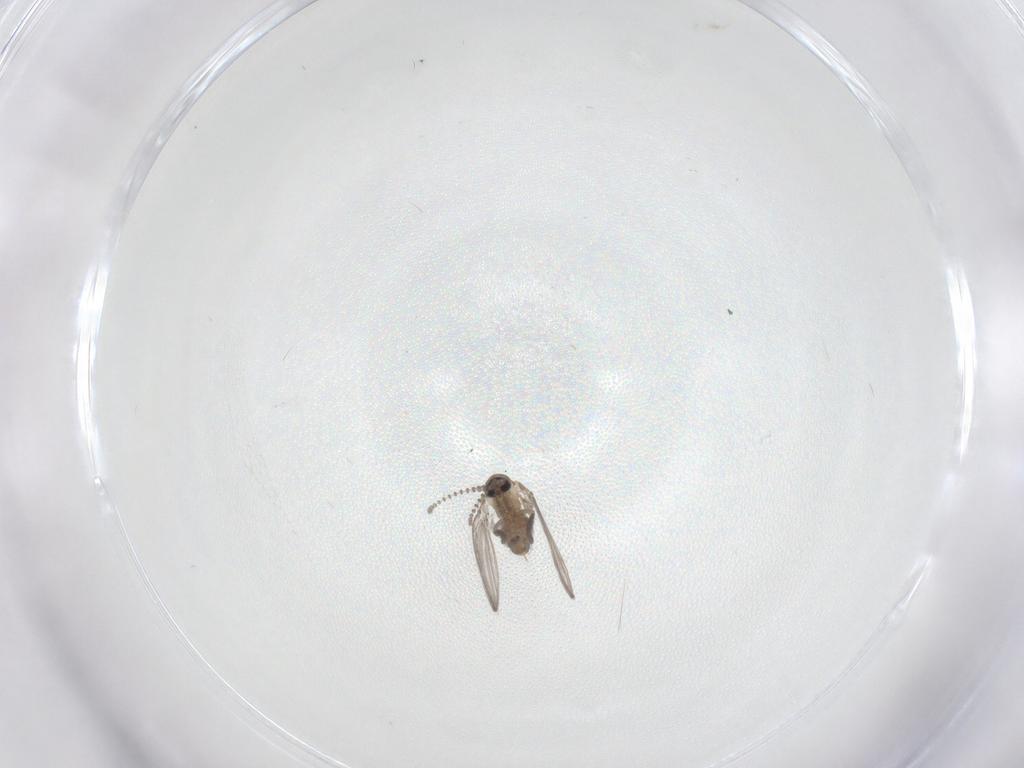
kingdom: Animalia
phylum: Arthropoda
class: Insecta
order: Diptera
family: Psychodidae
